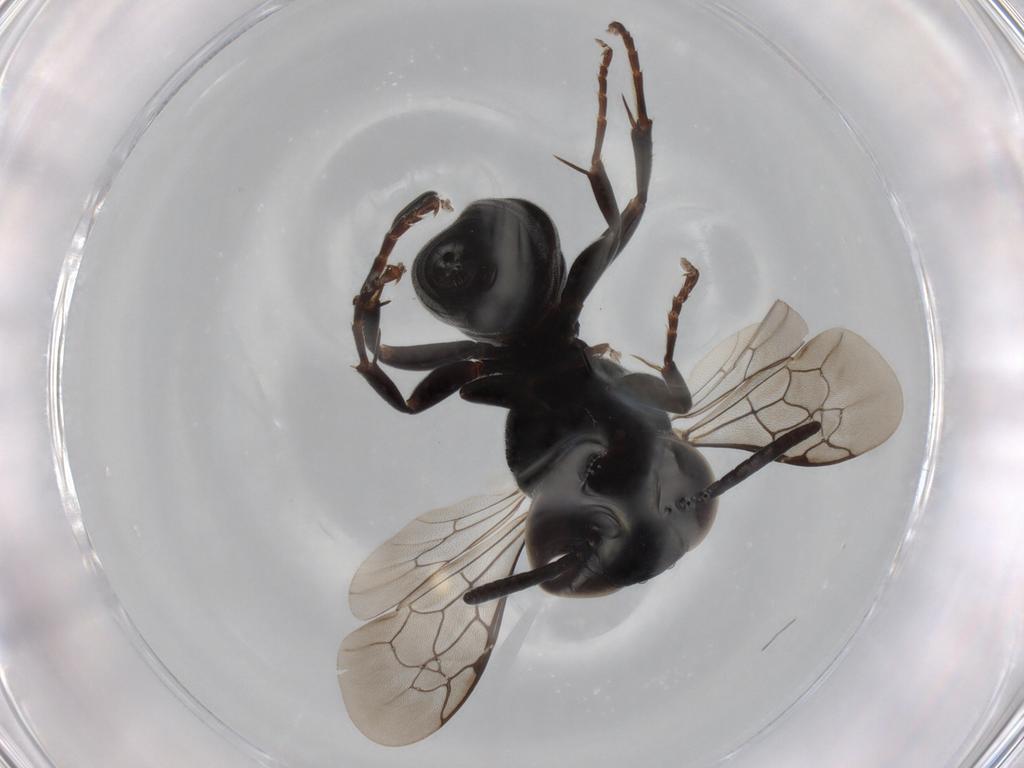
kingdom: Animalia
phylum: Arthropoda
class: Insecta
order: Hymenoptera
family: Crabronidae
